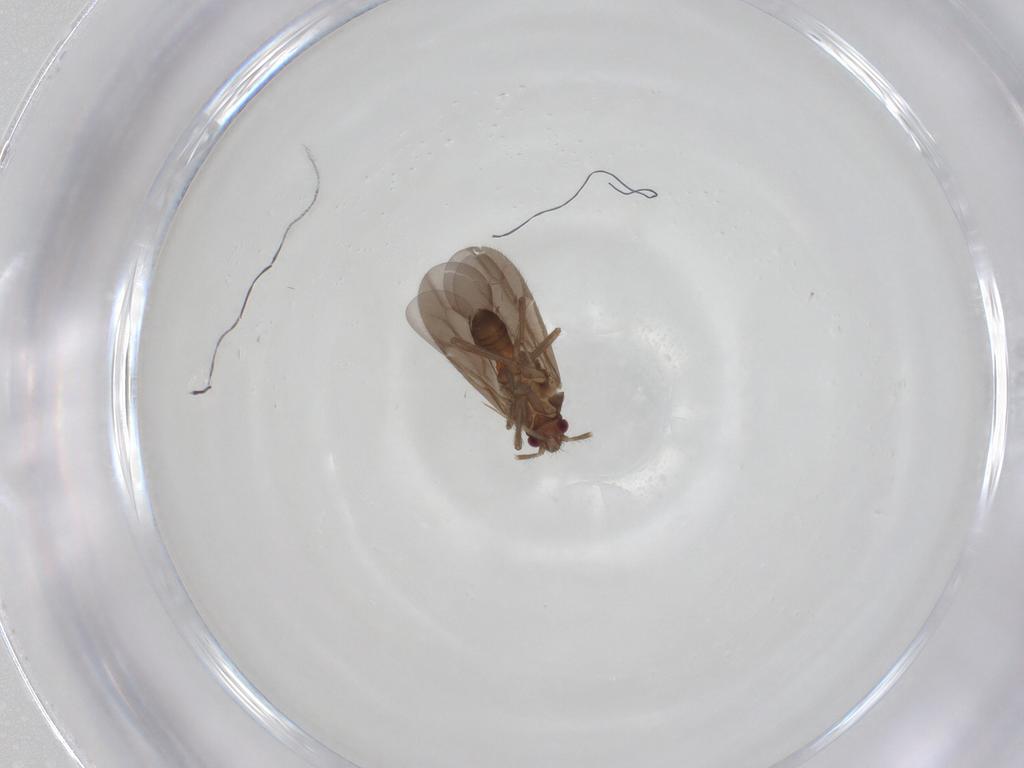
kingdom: Animalia
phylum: Arthropoda
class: Insecta
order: Hemiptera
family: Ceratocombidae
